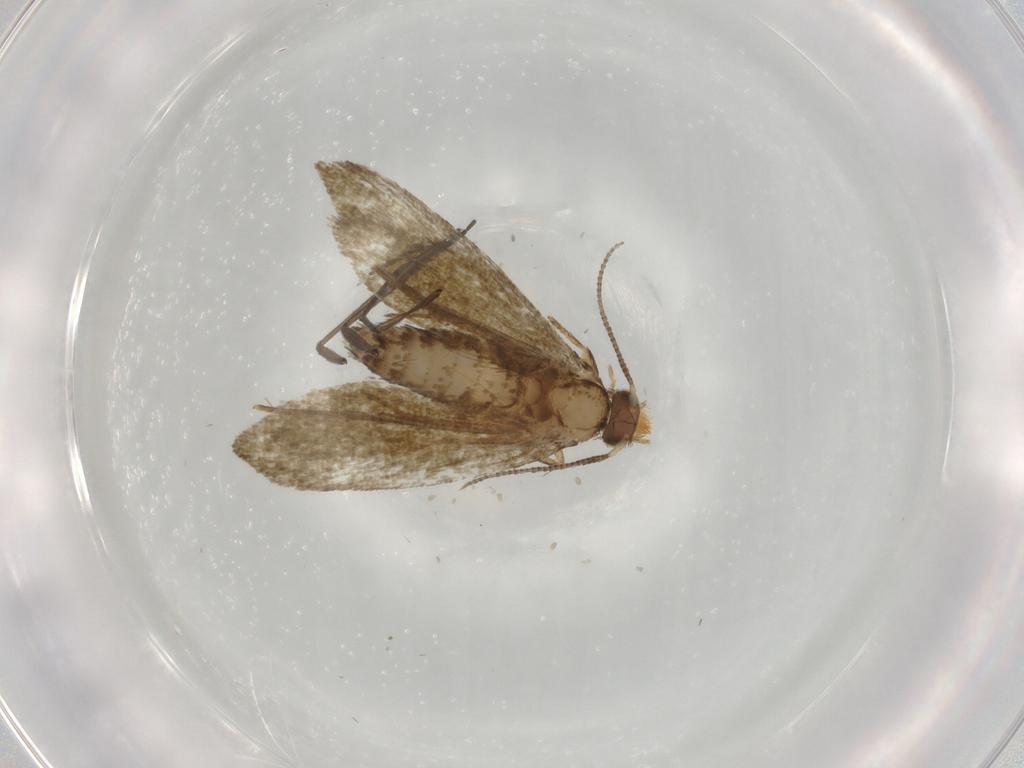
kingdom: Animalia
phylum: Arthropoda
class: Insecta
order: Lepidoptera
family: Tineidae
